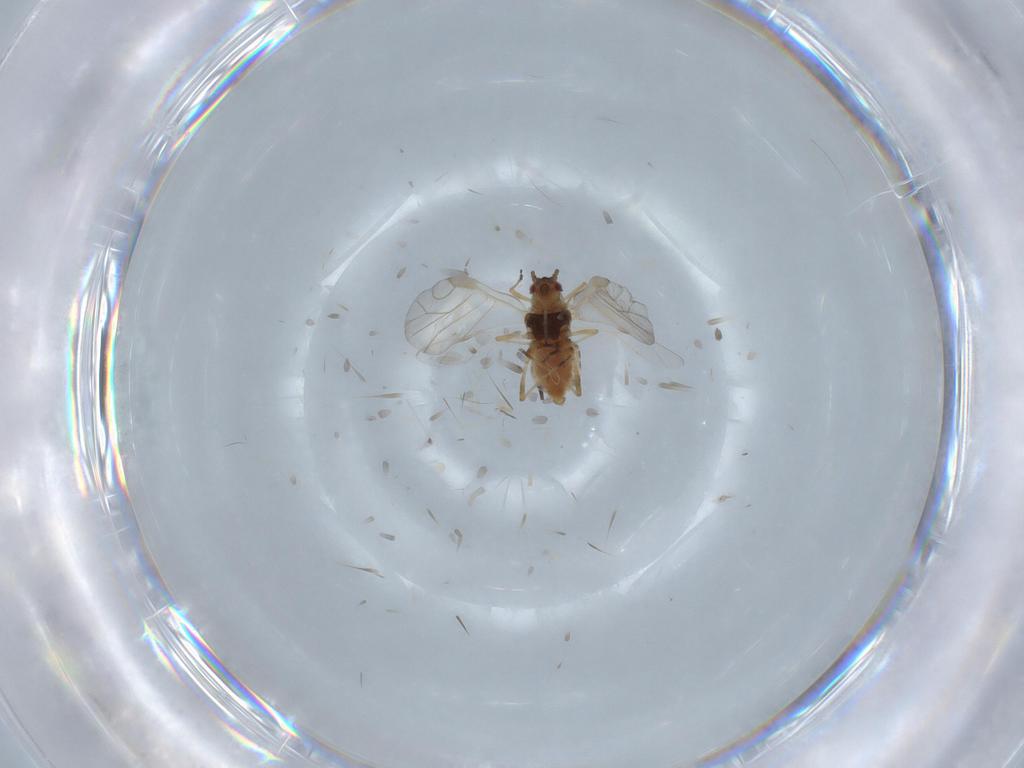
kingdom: Animalia
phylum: Arthropoda
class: Insecta
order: Hemiptera
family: Aphididae
